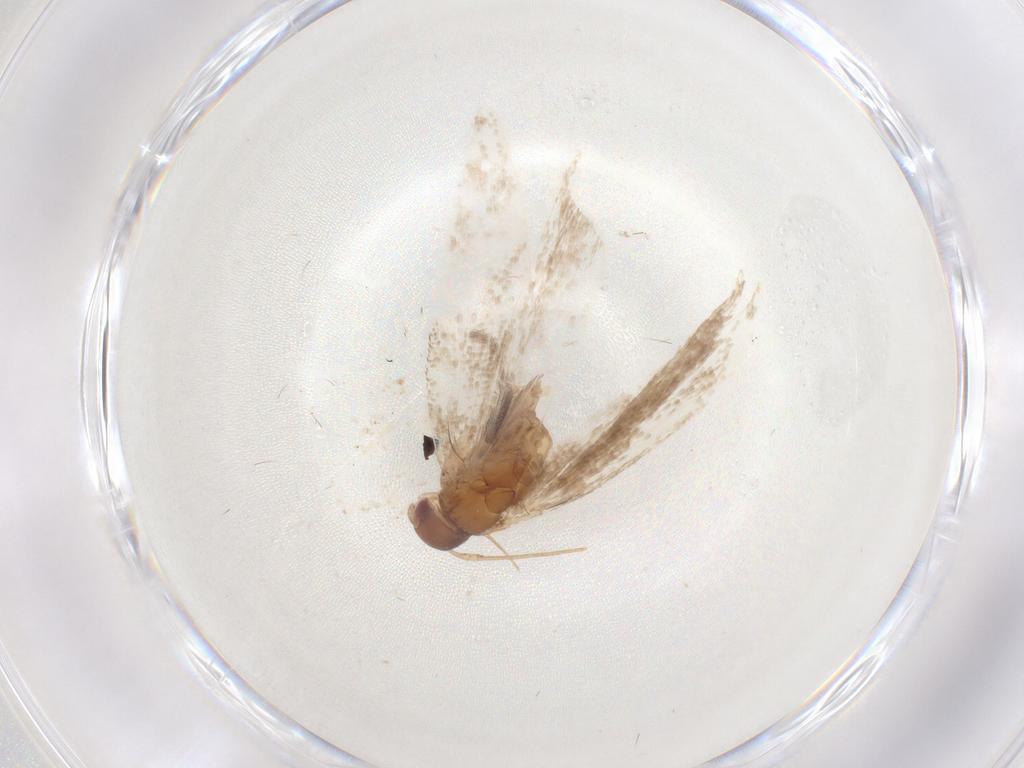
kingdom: Animalia
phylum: Arthropoda
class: Insecta
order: Lepidoptera
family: Gelechiidae
